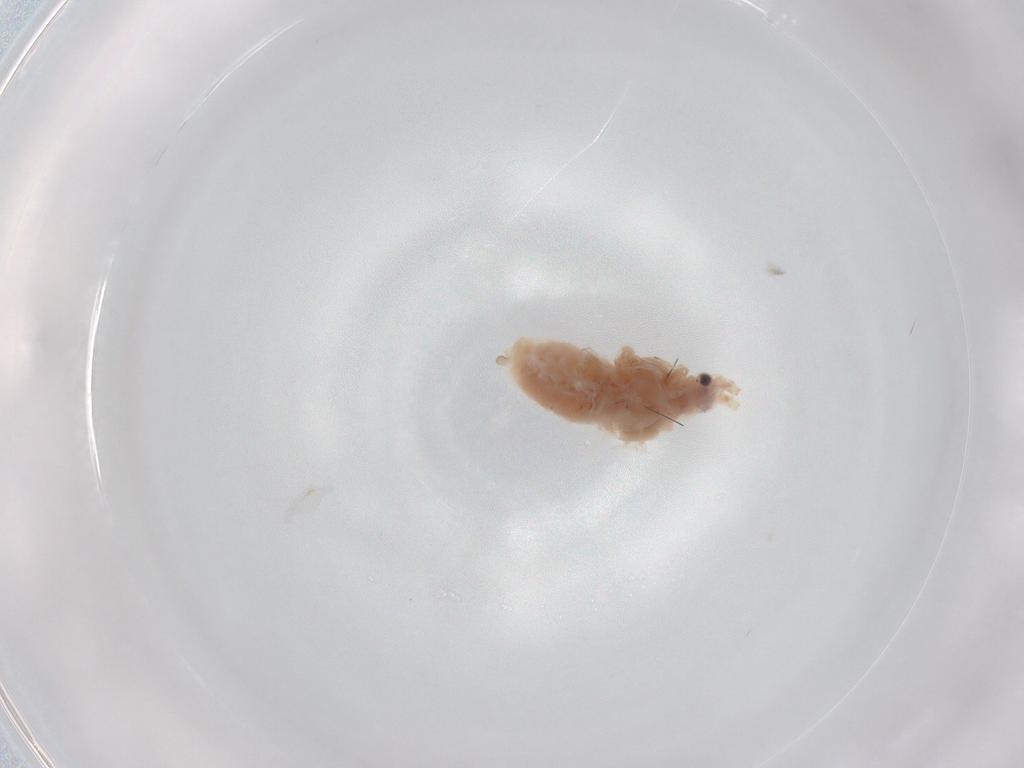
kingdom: Animalia
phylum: Arthropoda
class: Insecta
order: Hemiptera
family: Aphididae
